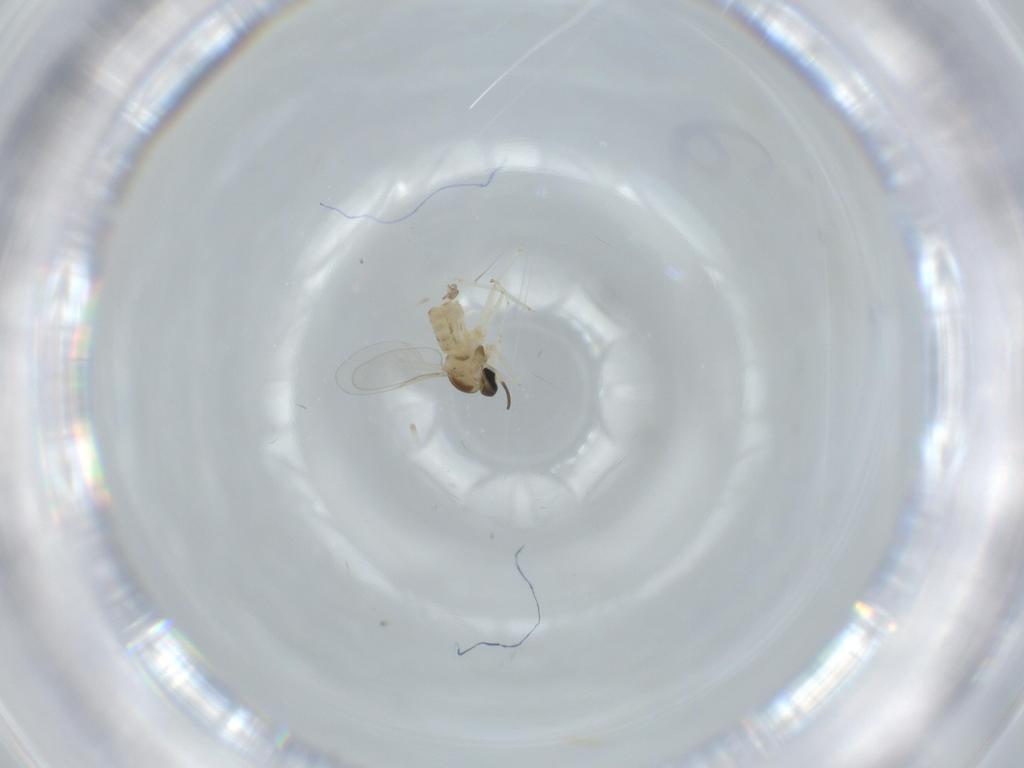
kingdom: Animalia
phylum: Arthropoda
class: Insecta
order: Diptera
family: Cecidomyiidae
